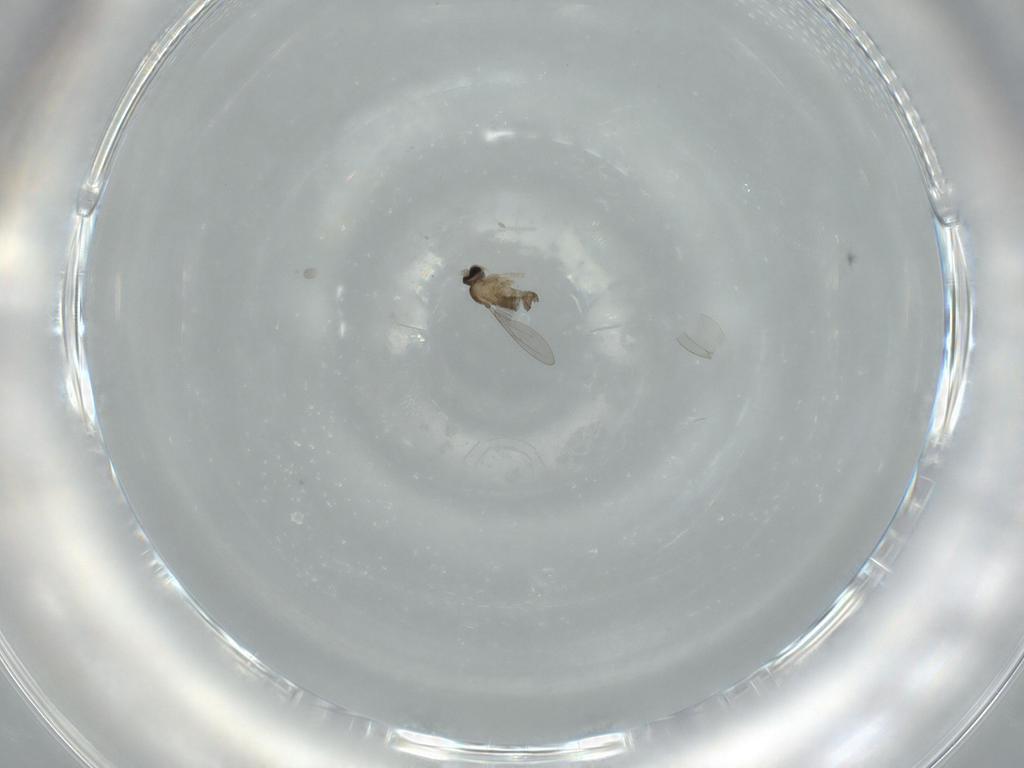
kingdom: Animalia
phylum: Arthropoda
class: Insecta
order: Diptera
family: Cecidomyiidae
